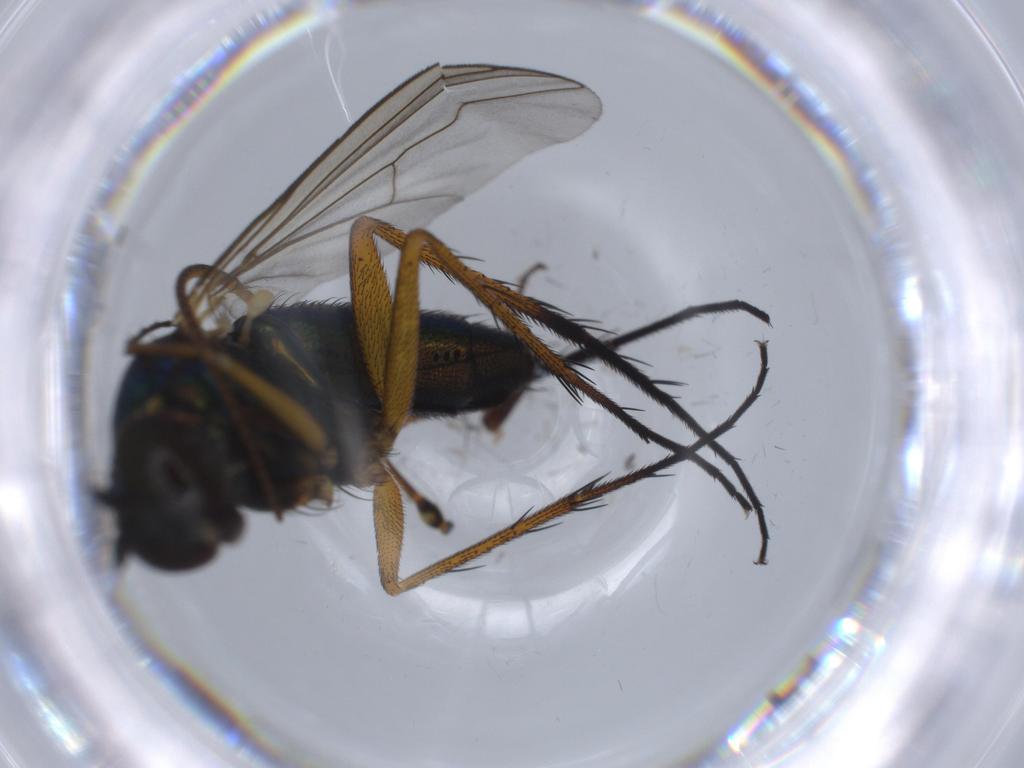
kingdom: Animalia
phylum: Arthropoda
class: Insecta
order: Diptera
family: Limoniidae
